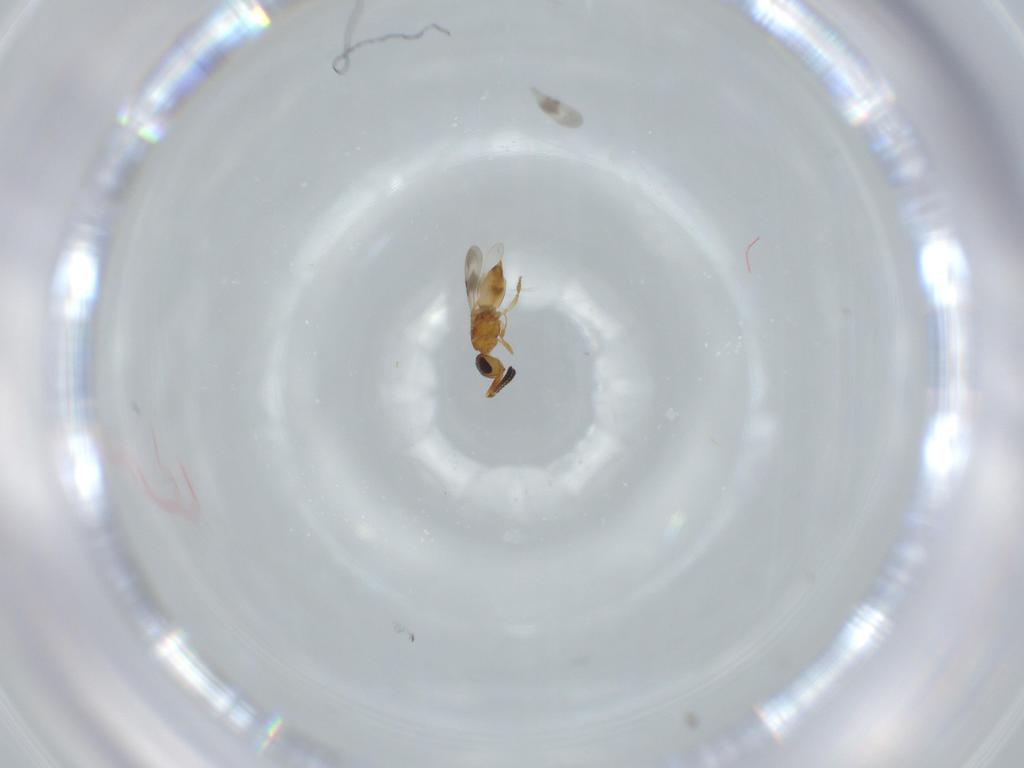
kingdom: Animalia
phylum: Arthropoda
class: Insecta
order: Hymenoptera
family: Ceraphronidae
